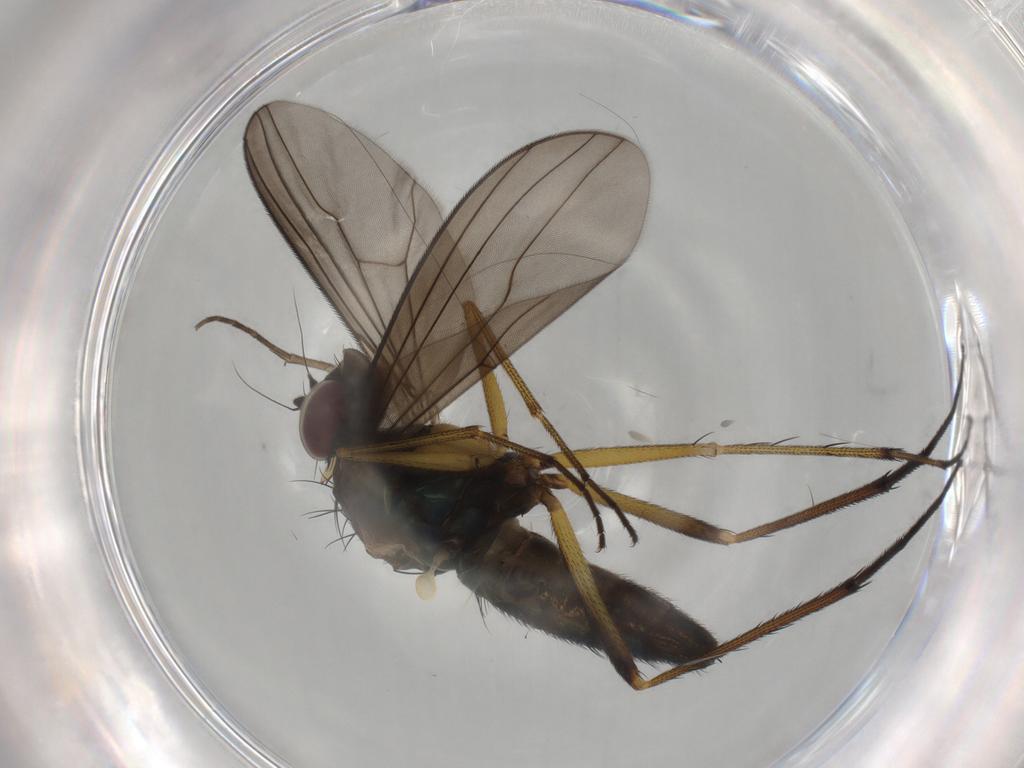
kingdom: Animalia
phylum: Arthropoda
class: Insecta
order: Diptera
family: Dolichopodidae
